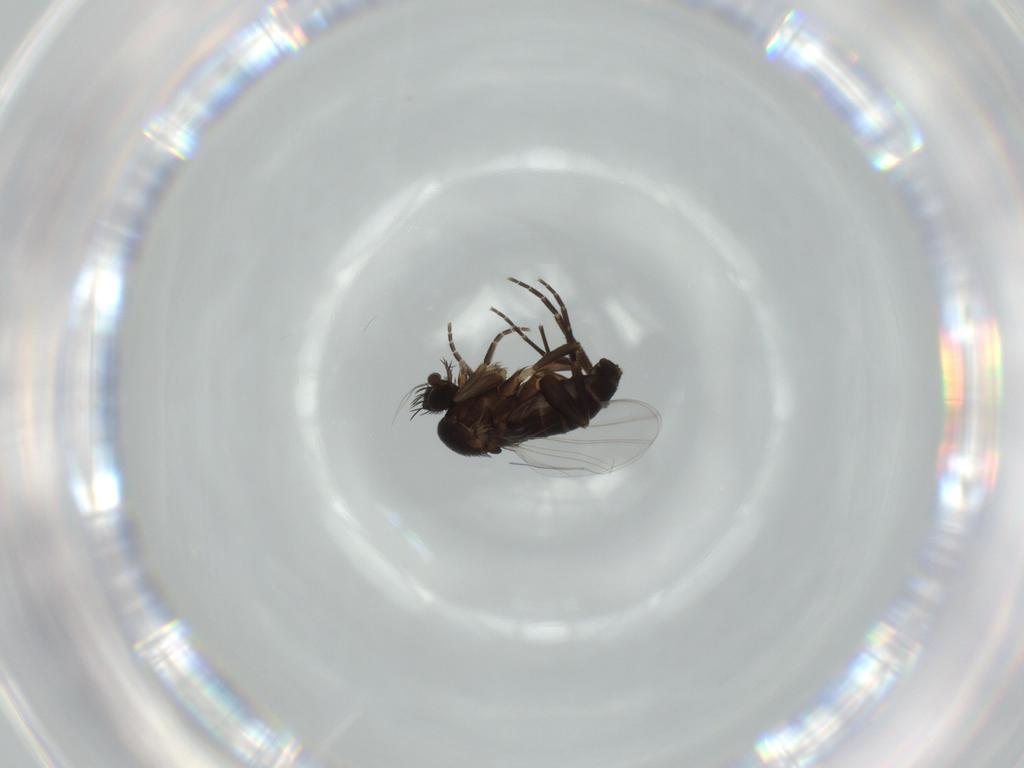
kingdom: Animalia
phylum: Arthropoda
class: Insecta
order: Diptera
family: Phoridae
